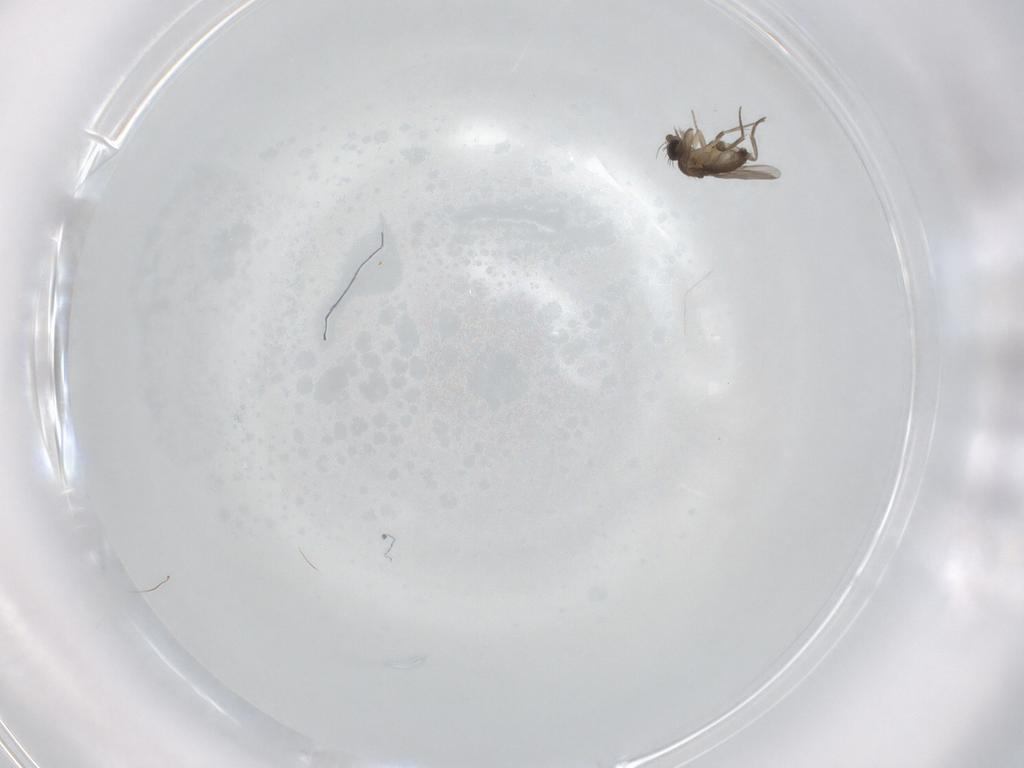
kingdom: Animalia
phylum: Arthropoda
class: Insecta
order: Diptera
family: Phoridae
